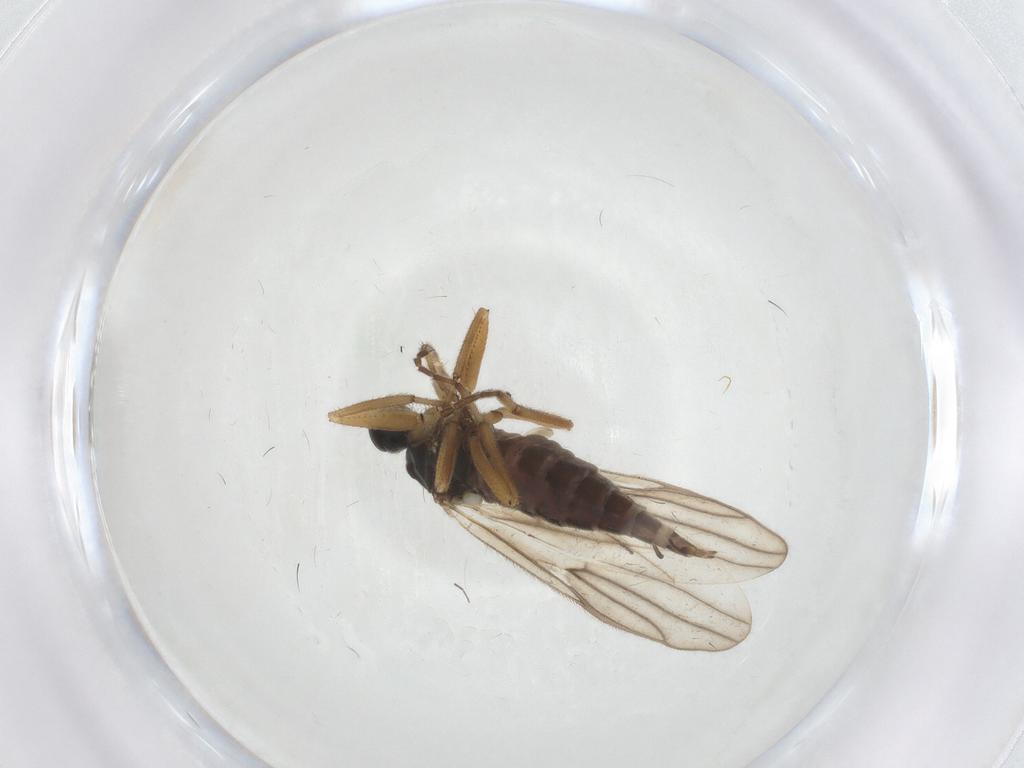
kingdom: Animalia
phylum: Arthropoda
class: Insecta
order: Diptera
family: Hybotidae
